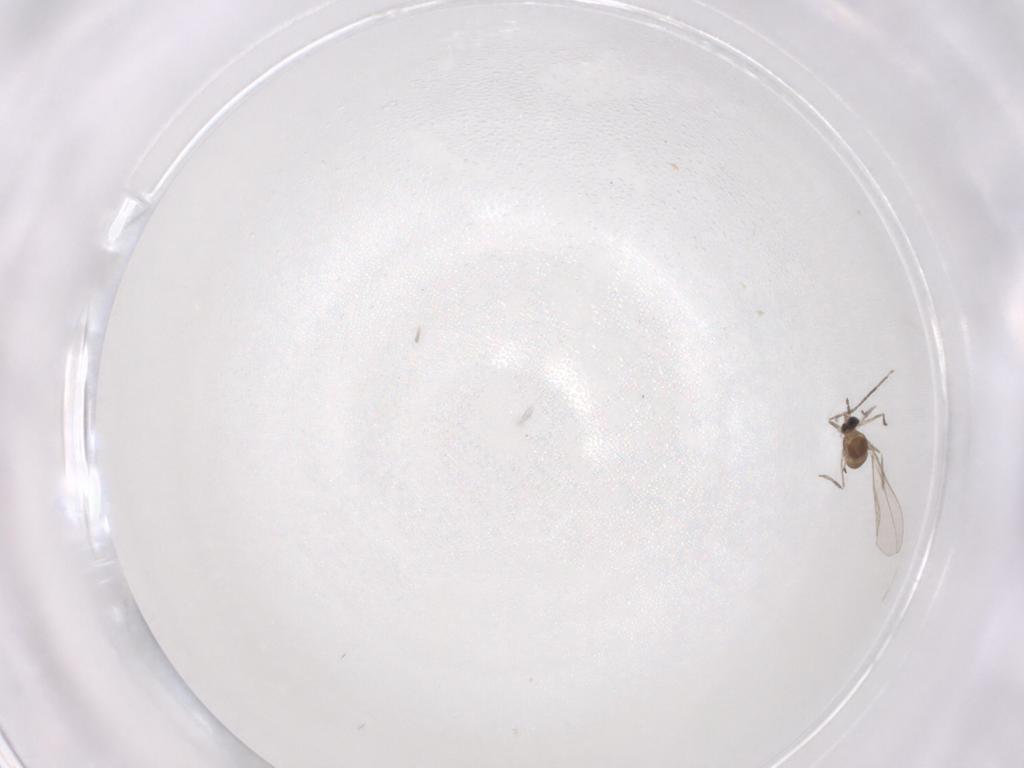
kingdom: Animalia
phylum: Arthropoda
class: Insecta
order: Diptera
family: Cecidomyiidae
